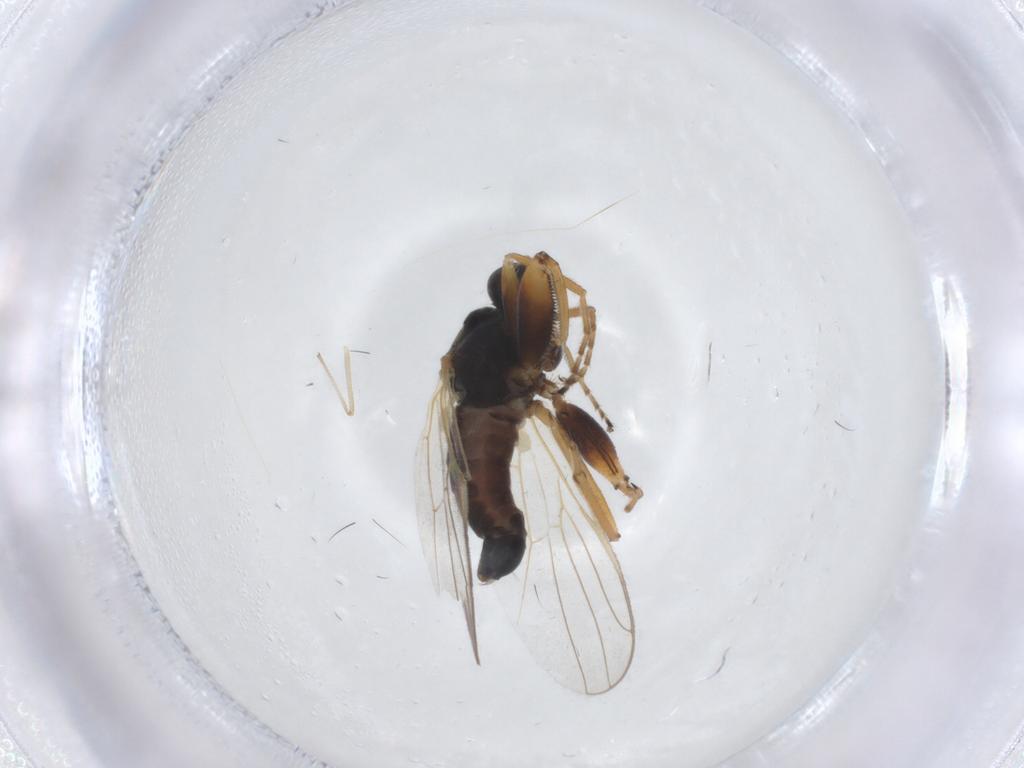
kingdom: Animalia
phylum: Arthropoda
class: Insecta
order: Diptera
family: Hybotidae
